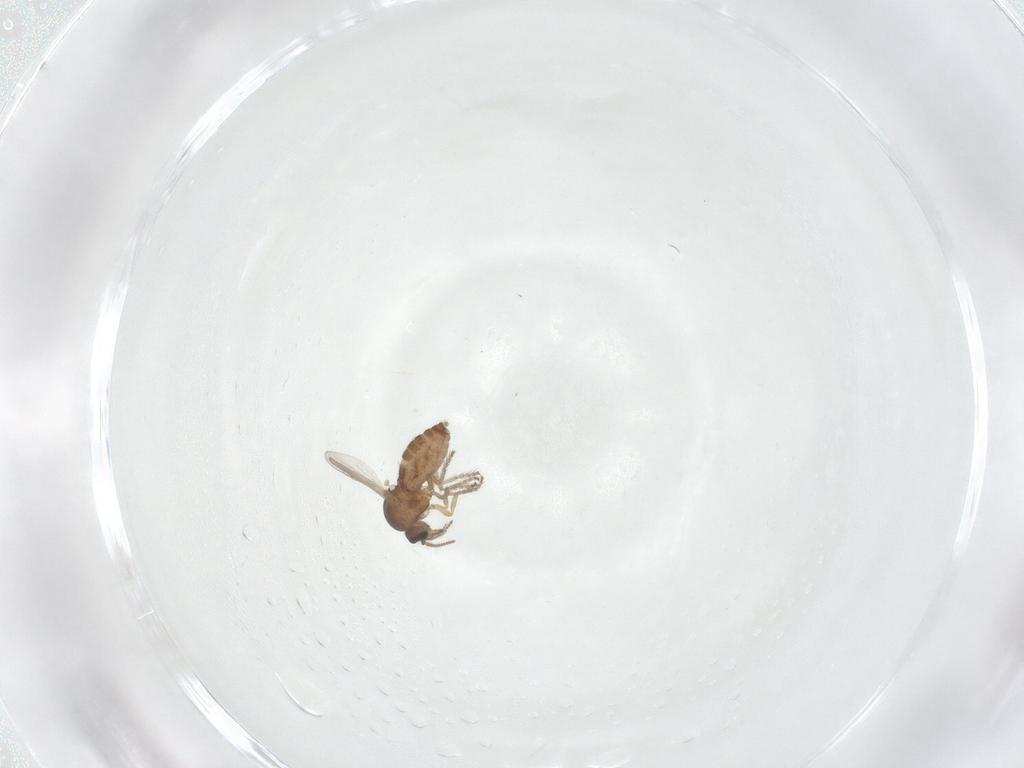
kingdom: Animalia
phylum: Arthropoda
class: Insecta
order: Diptera
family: Ceratopogonidae
